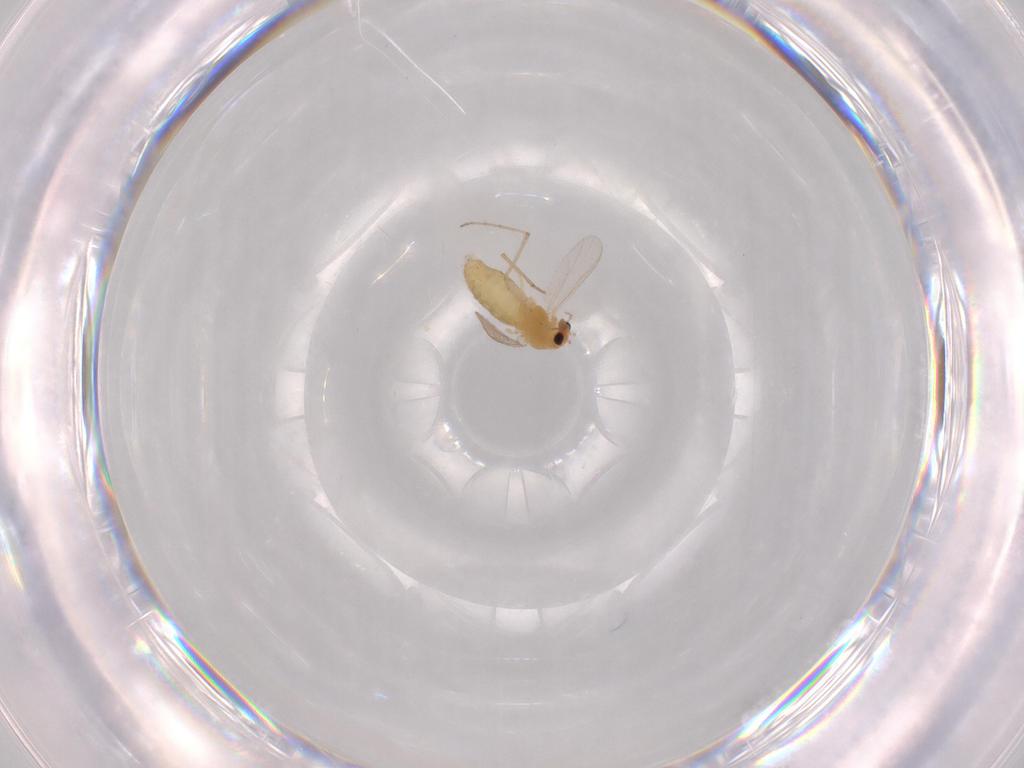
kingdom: Animalia
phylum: Arthropoda
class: Insecta
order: Diptera
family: Chironomidae
